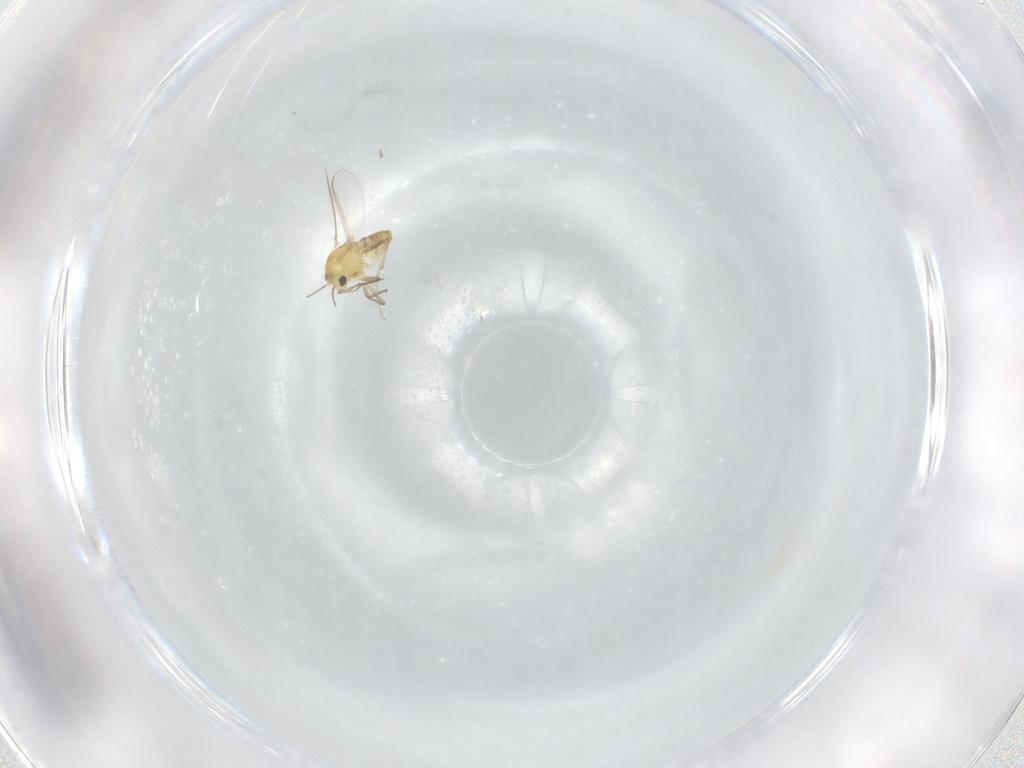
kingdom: Animalia
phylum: Arthropoda
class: Insecta
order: Diptera
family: Chironomidae
